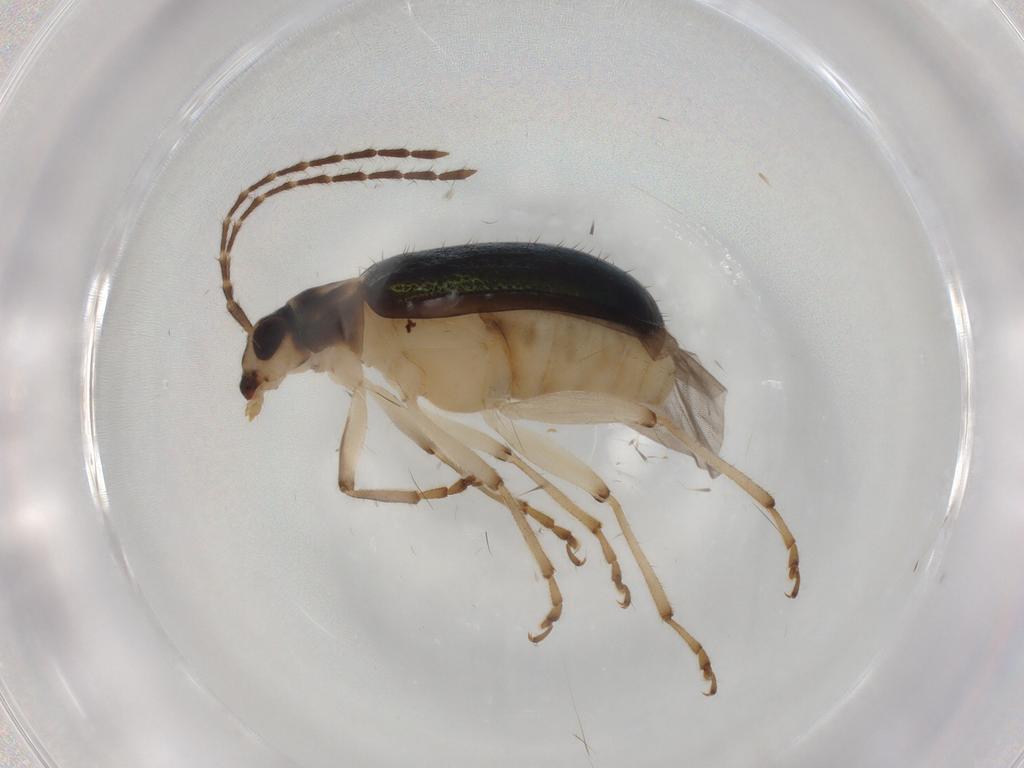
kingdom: Animalia
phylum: Arthropoda
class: Insecta
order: Coleoptera
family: Chrysomelidae
